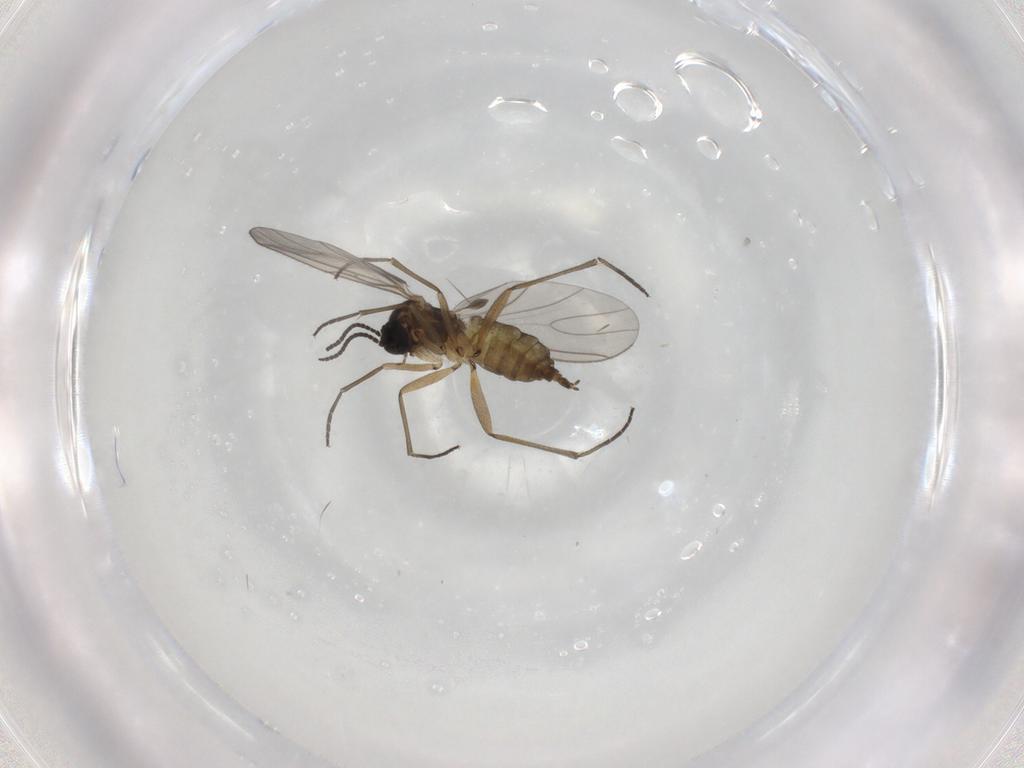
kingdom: Animalia
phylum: Arthropoda
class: Insecta
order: Diptera
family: Sciaridae
